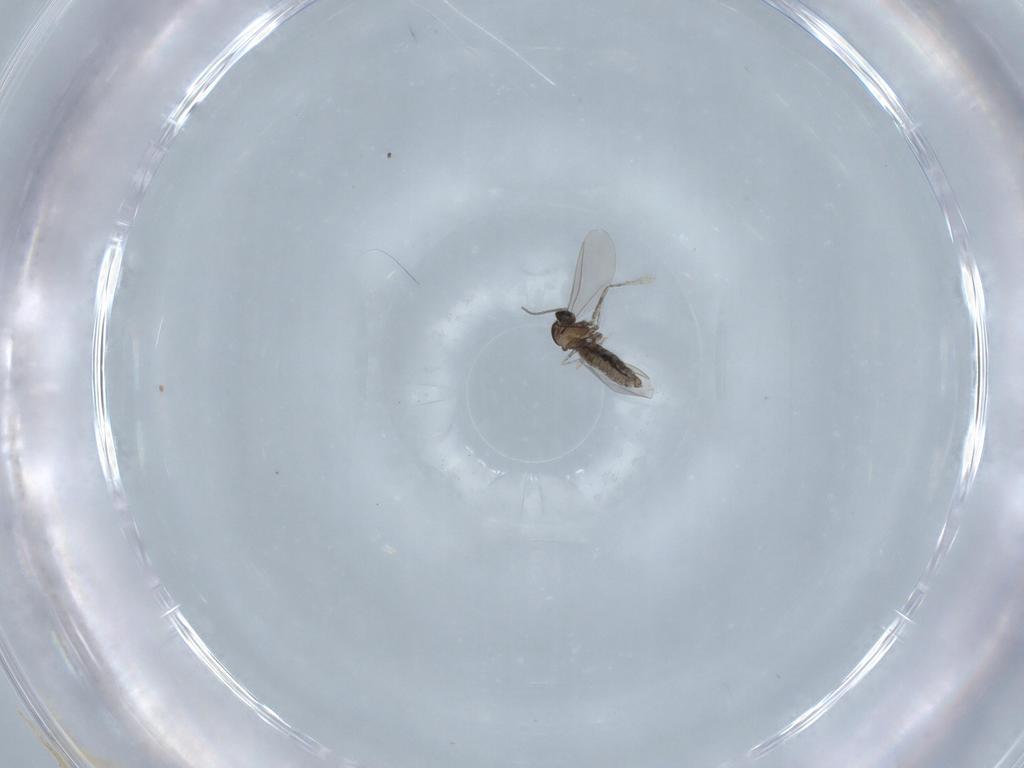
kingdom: Animalia
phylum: Arthropoda
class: Insecta
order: Diptera
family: Cecidomyiidae
